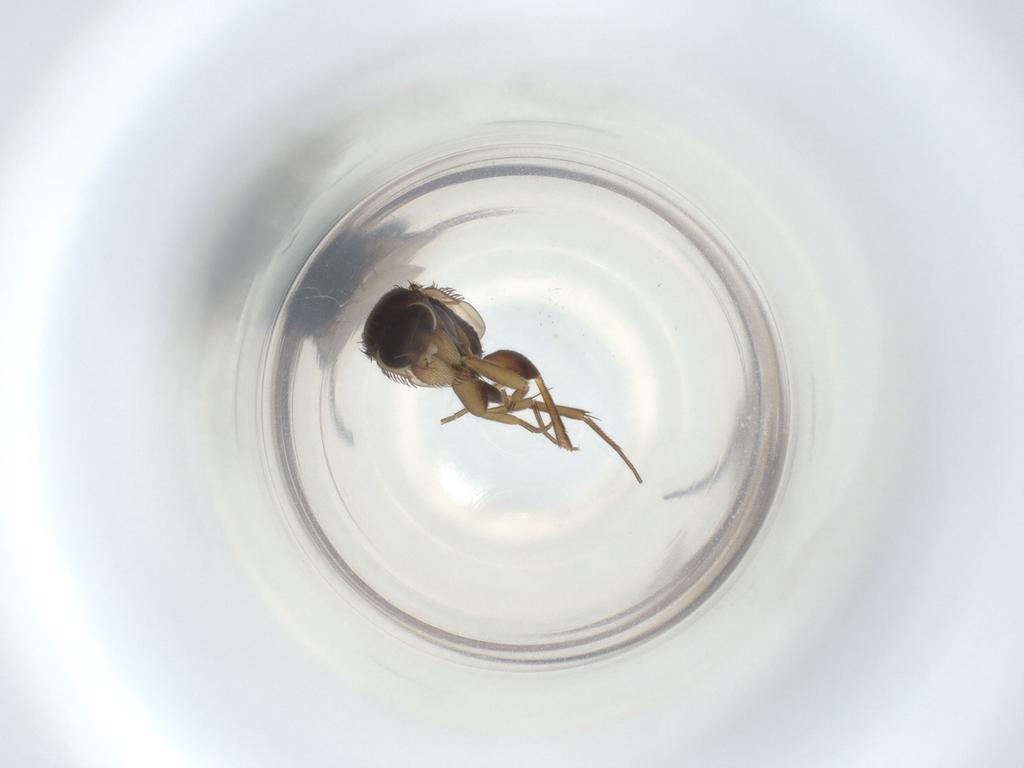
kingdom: Animalia
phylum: Arthropoda
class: Insecta
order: Diptera
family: Phoridae
